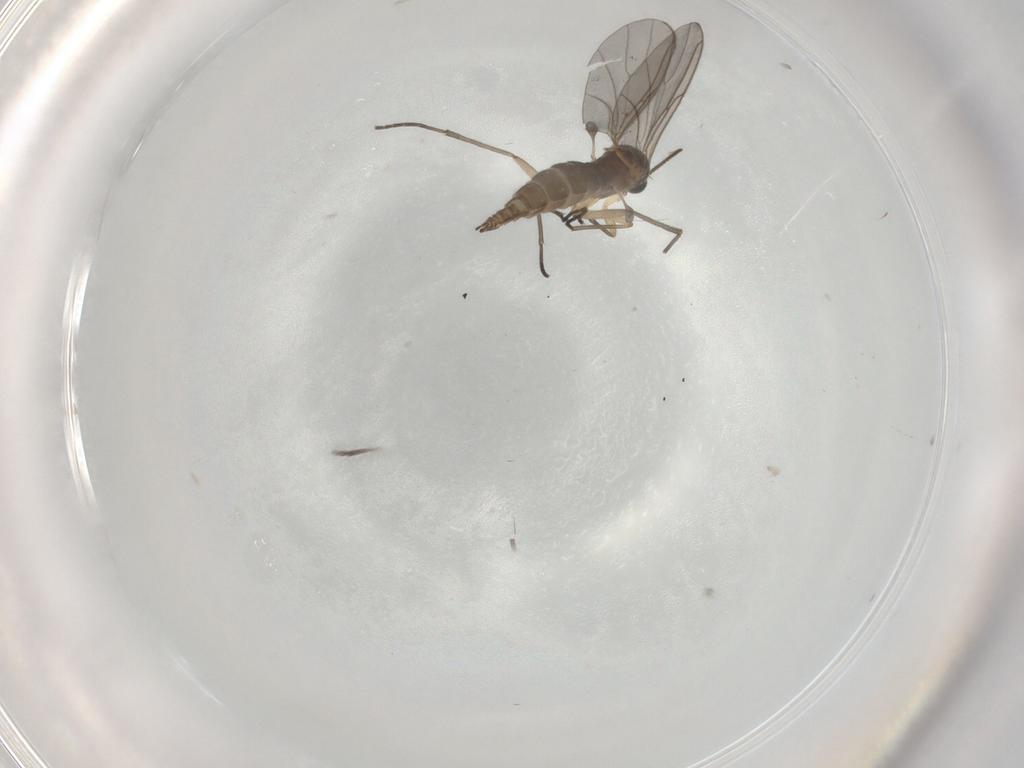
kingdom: Animalia
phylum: Arthropoda
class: Insecta
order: Diptera
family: Sciaridae
